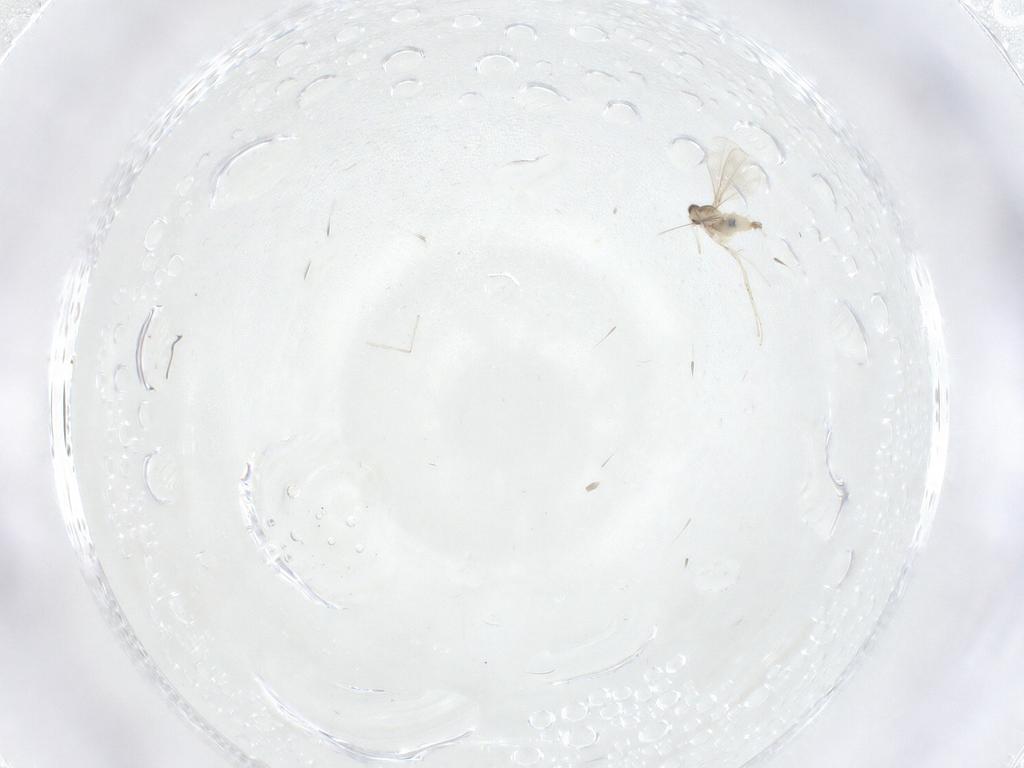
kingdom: Animalia
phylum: Arthropoda
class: Insecta
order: Diptera
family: Cecidomyiidae
